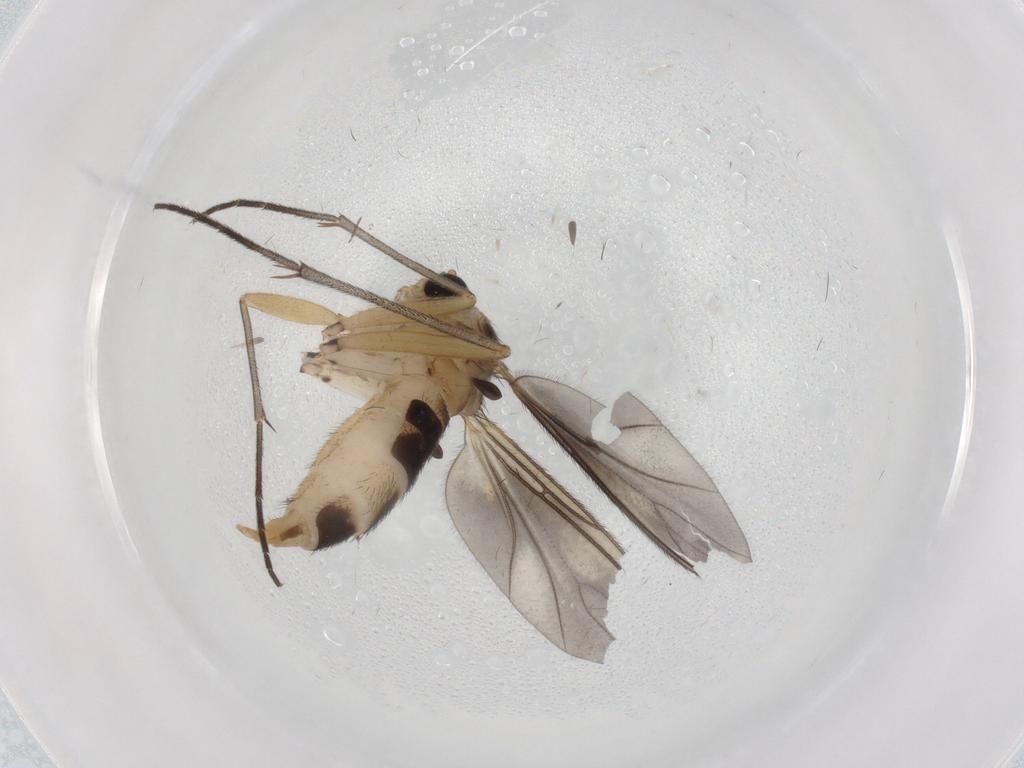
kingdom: Animalia
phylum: Arthropoda
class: Insecta
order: Diptera
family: Sciaridae
